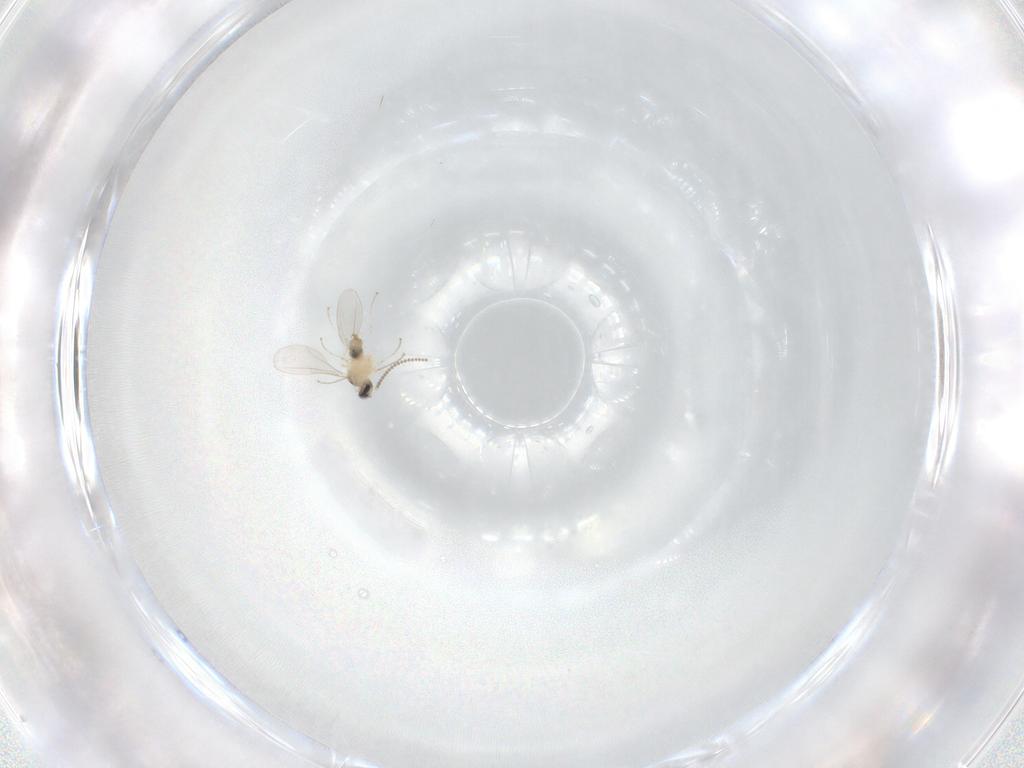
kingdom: Animalia
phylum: Arthropoda
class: Insecta
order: Diptera
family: Cecidomyiidae
